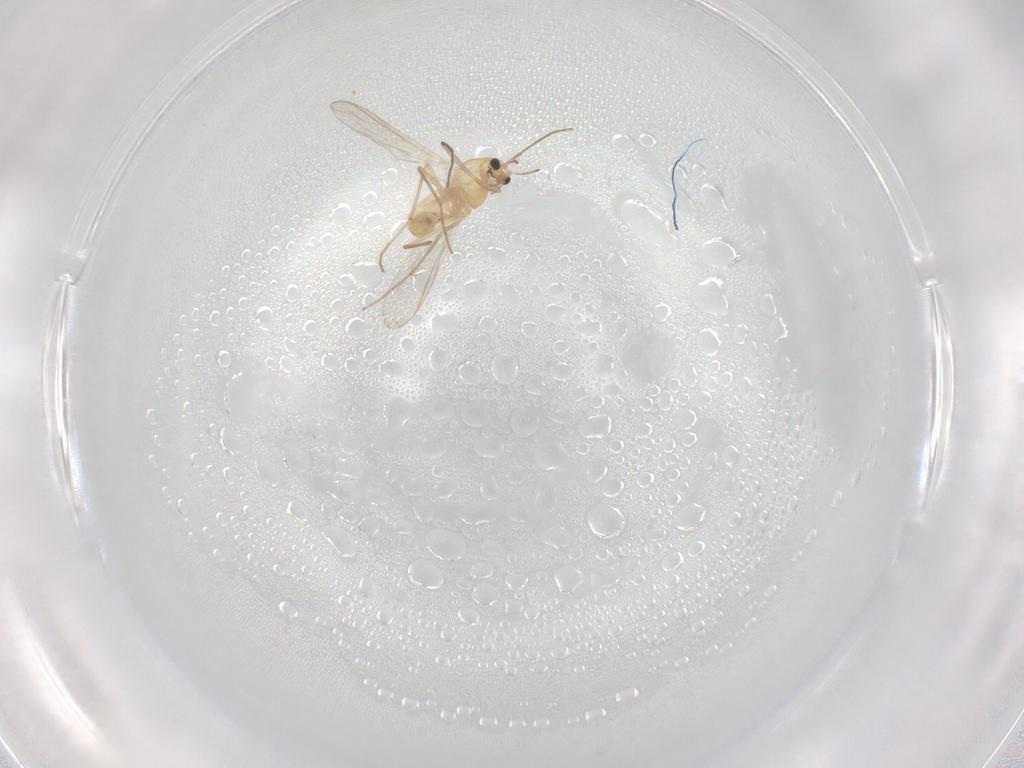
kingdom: Animalia
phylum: Arthropoda
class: Insecta
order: Diptera
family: Chironomidae
